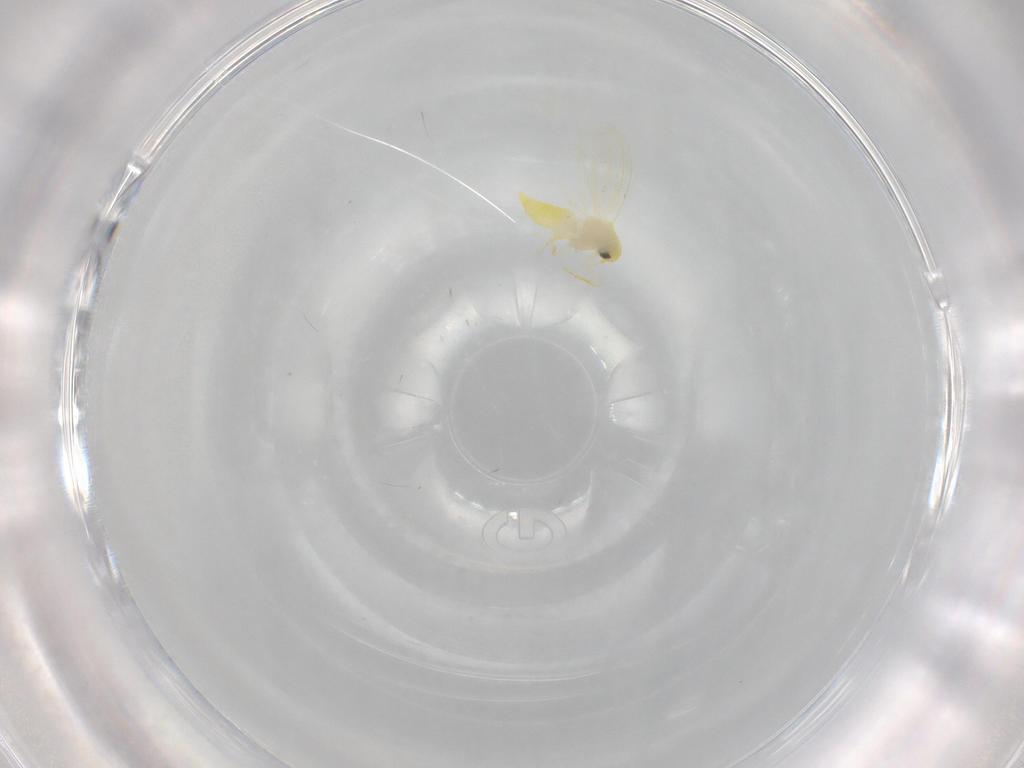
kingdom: Animalia
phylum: Arthropoda
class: Insecta
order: Hemiptera
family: Aleyrodidae
